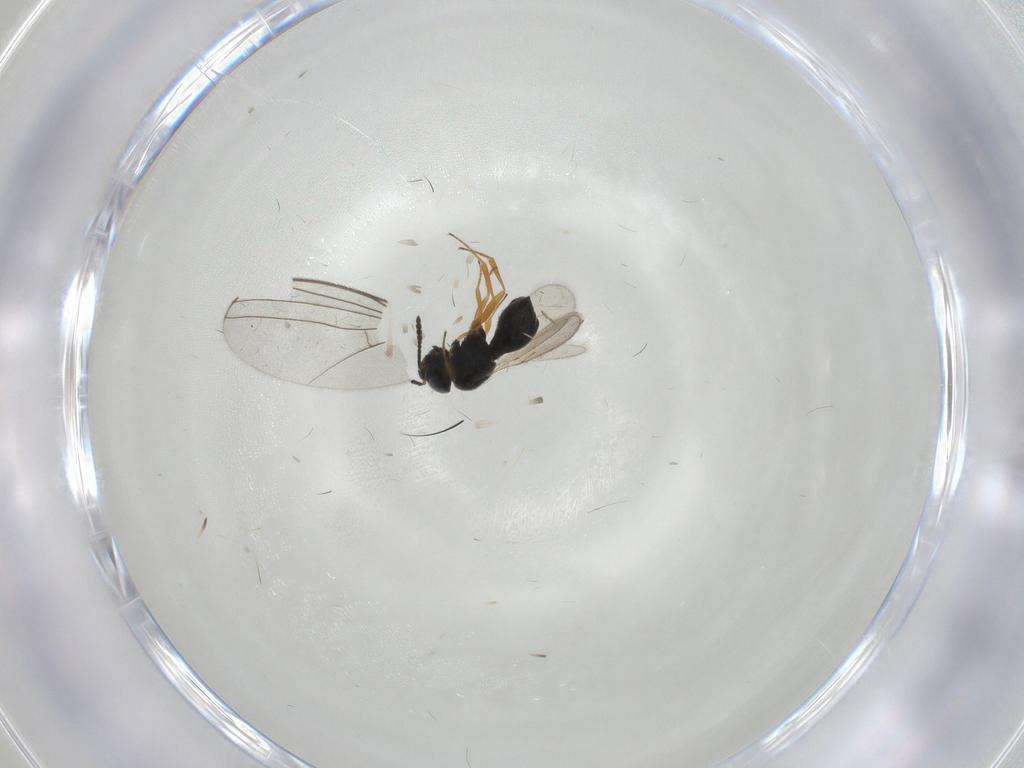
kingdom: Animalia
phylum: Arthropoda
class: Insecta
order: Hymenoptera
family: Scelionidae
